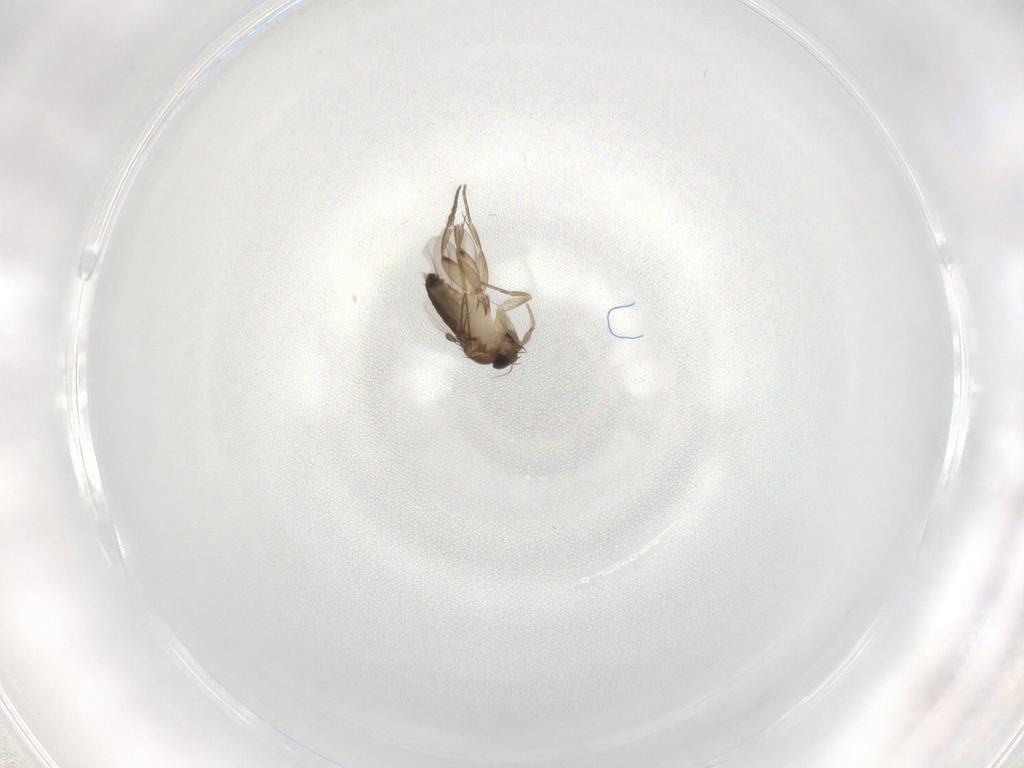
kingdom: Animalia
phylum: Arthropoda
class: Insecta
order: Diptera
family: Phoridae
